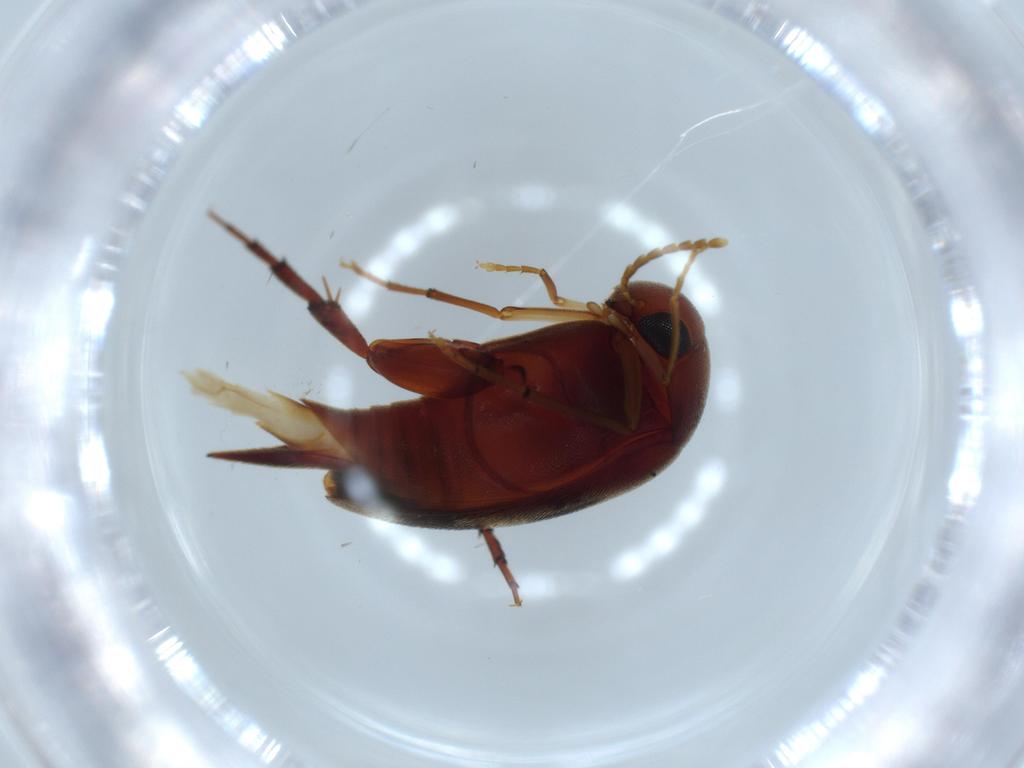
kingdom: Animalia
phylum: Arthropoda
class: Insecta
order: Coleoptera
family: Mordellidae
